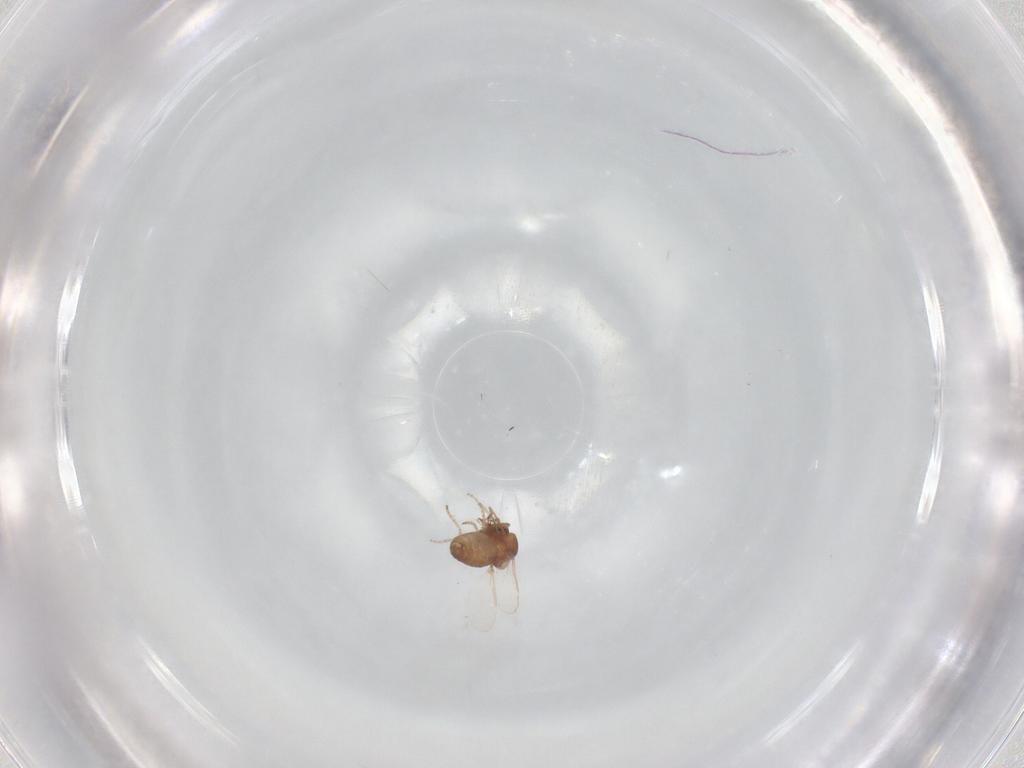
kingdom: Animalia
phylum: Arthropoda
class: Insecta
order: Diptera
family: Ceratopogonidae
